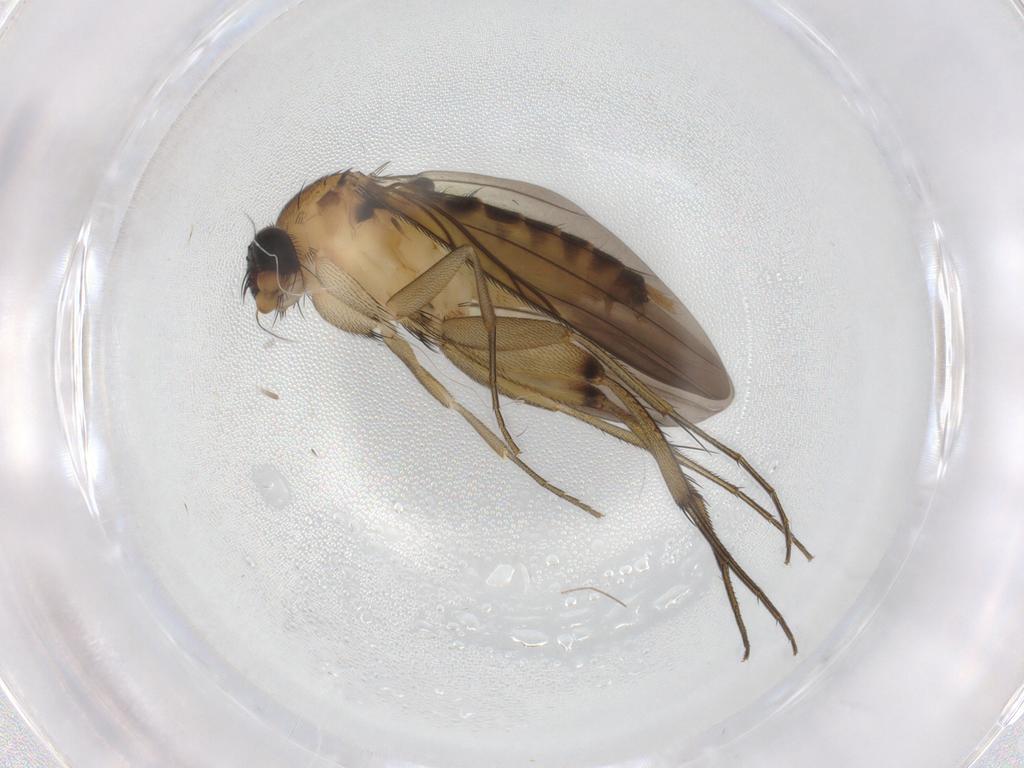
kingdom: Animalia
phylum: Arthropoda
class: Insecta
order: Diptera
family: Phoridae
